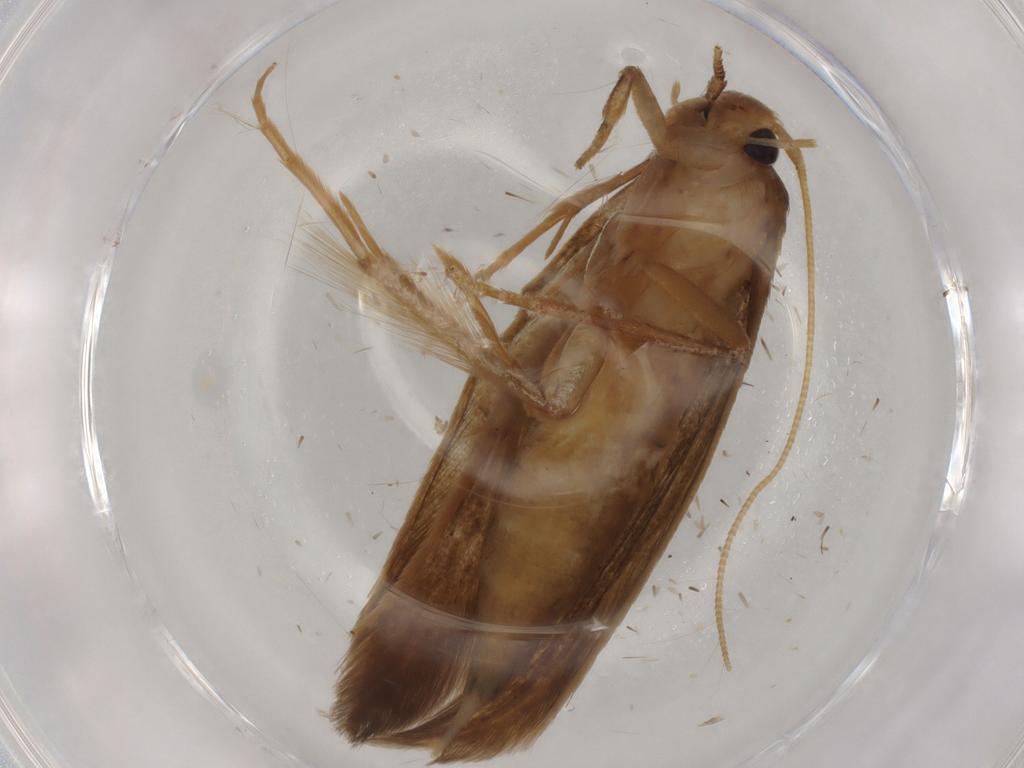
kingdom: Animalia
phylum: Arthropoda
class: Insecta
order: Lepidoptera
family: Tineidae
